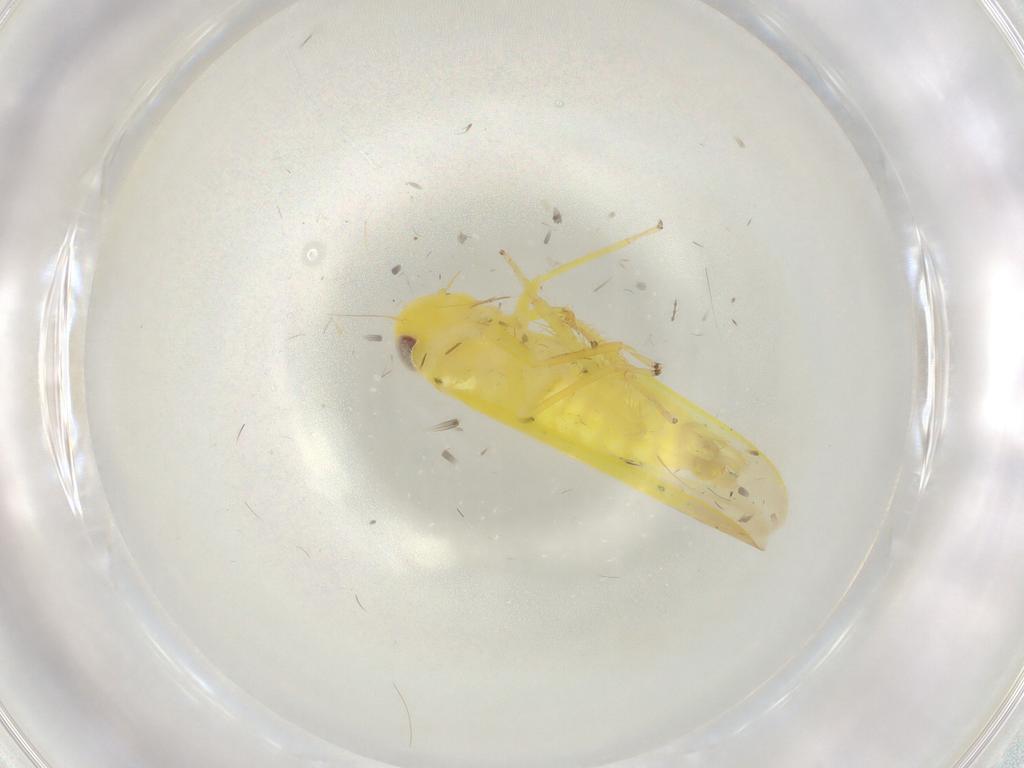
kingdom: Animalia
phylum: Arthropoda
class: Insecta
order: Hemiptera
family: Cicadellidae
